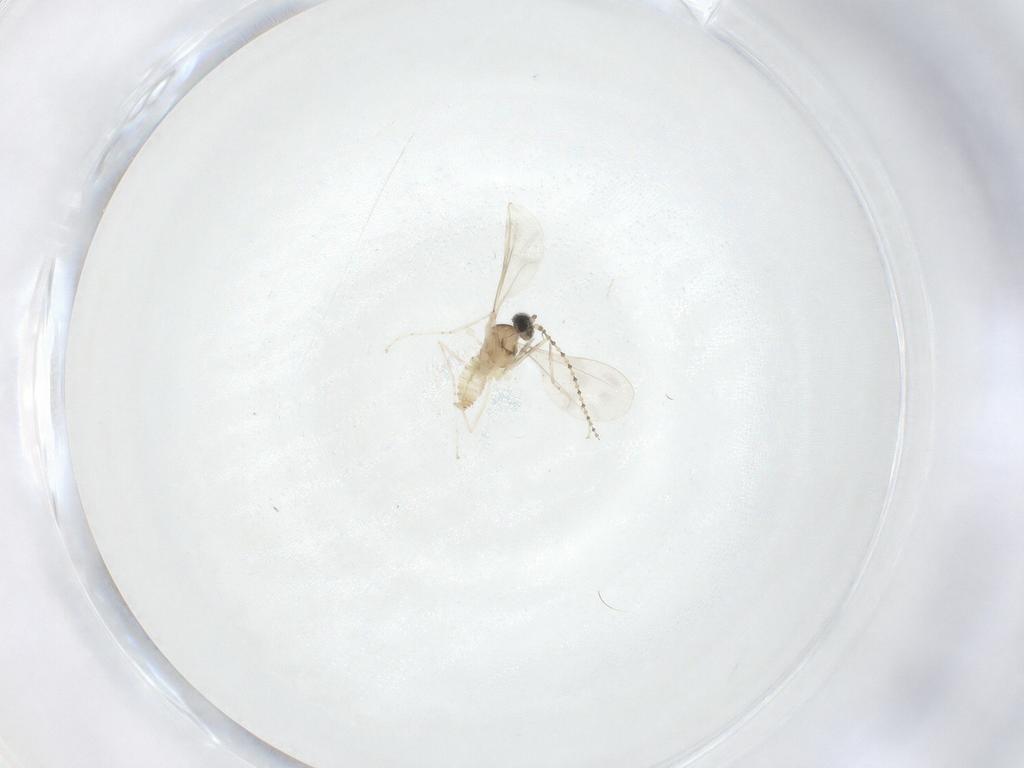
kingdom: Animalia
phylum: Arthropoda
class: Insecta
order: Diptera
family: Cecidomyiidae
